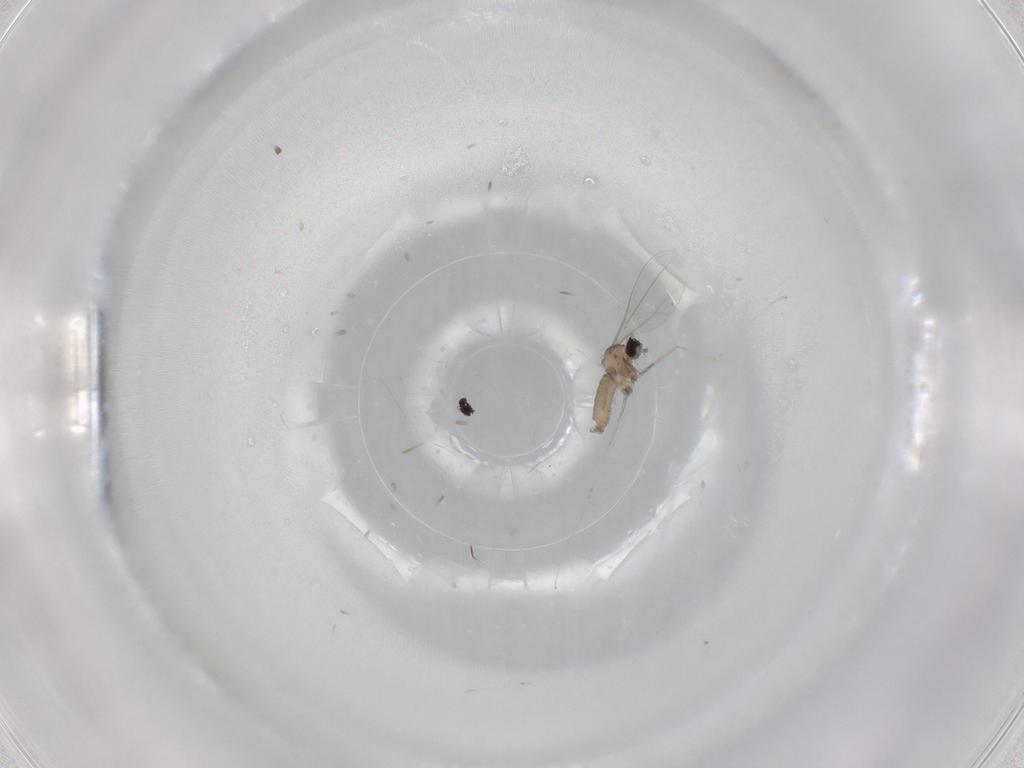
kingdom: Animalia
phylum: Arthropoda
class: Insecta
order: Diptera
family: Cecidomyiidae
